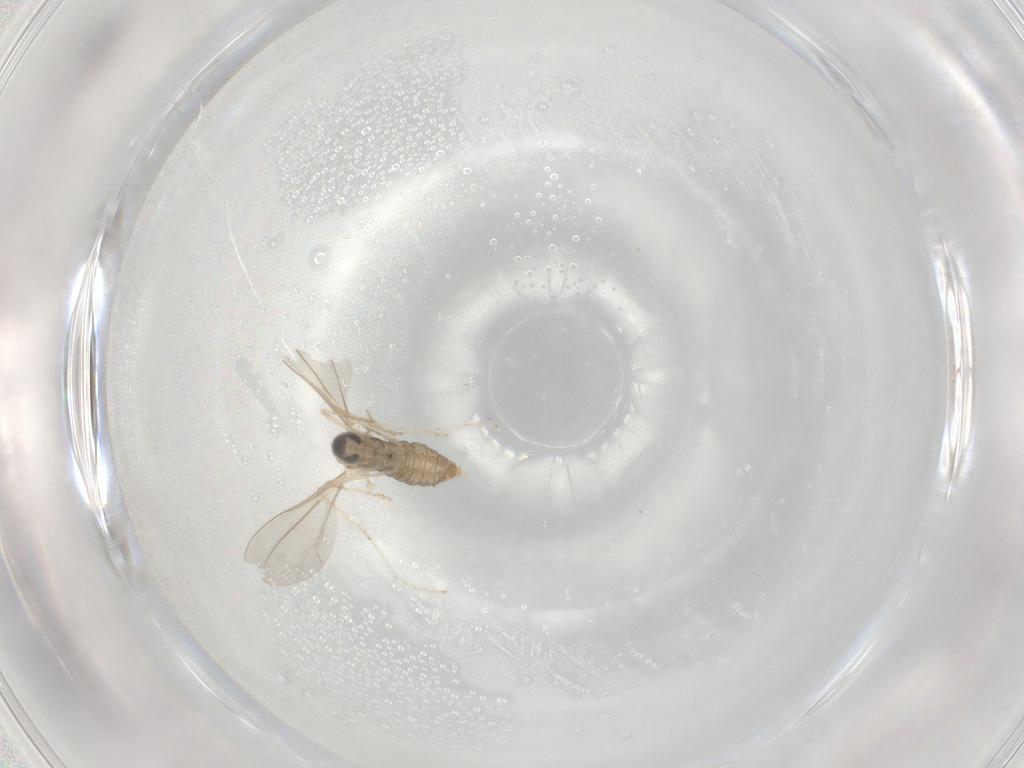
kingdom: Animalia
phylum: Arthropoda
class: Insecta
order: Diptera
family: Cecidomyiidae
